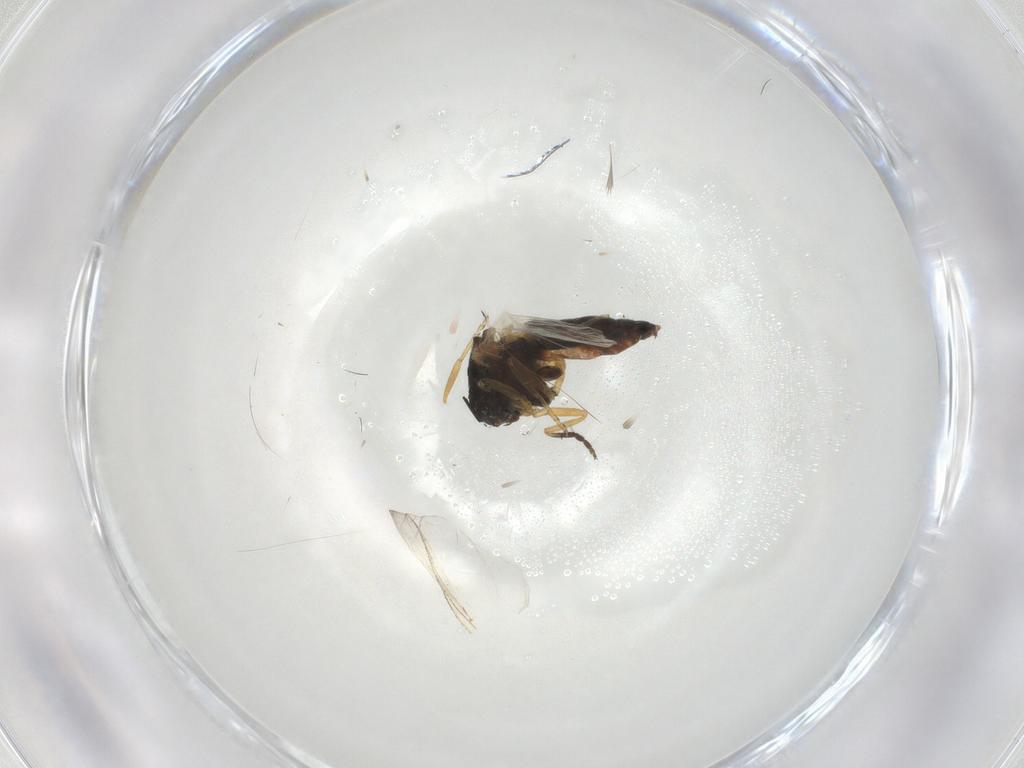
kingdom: Animalia
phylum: Arthropoda
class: Insecta
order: Diptera
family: Simuliidae
